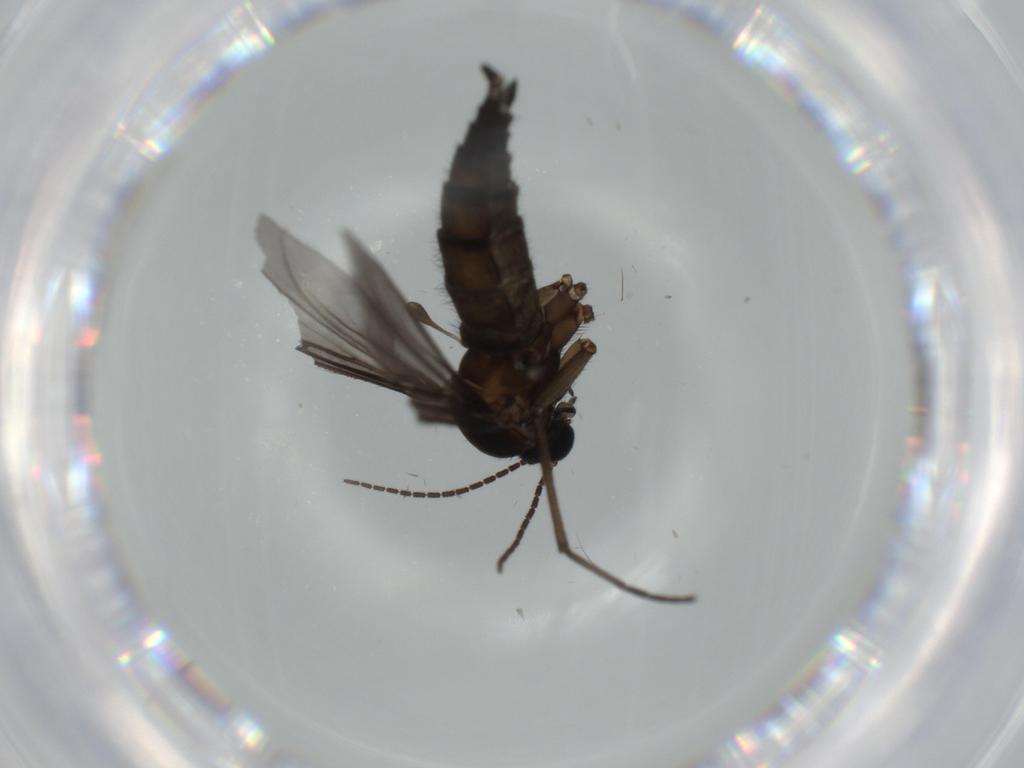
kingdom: Animalia
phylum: Arthropoda
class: Insecta
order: Diptera
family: Sciaridae
